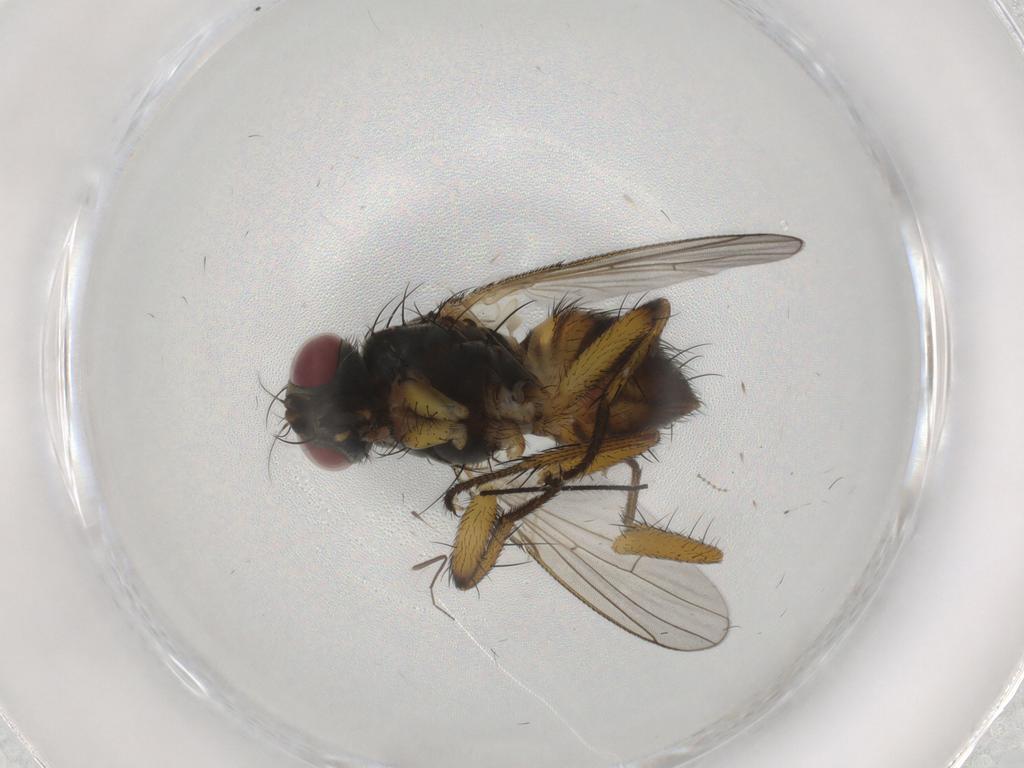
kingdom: Animalia
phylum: Arthropoda
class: Insecta
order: Diptera
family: Muscidae
